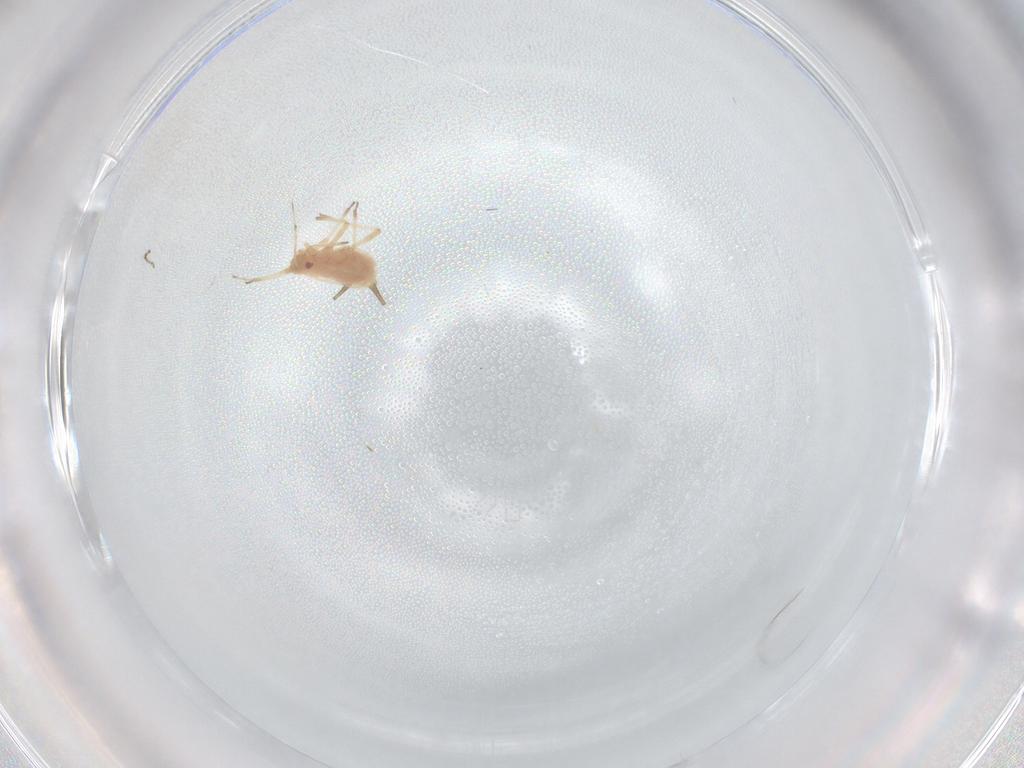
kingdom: Animalia
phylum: Arthropoda
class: Insecta
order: Hemiptera
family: Aphididae
